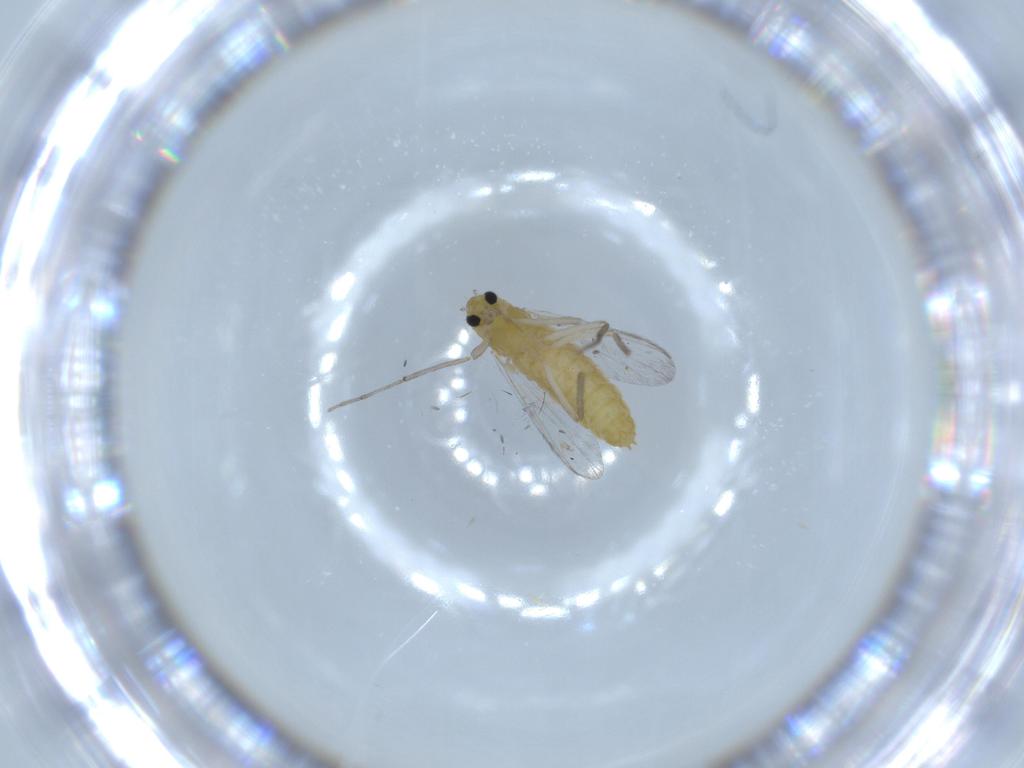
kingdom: Animalia
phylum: Arthropoda
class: Insecta
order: Diptera
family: Chironomidae
